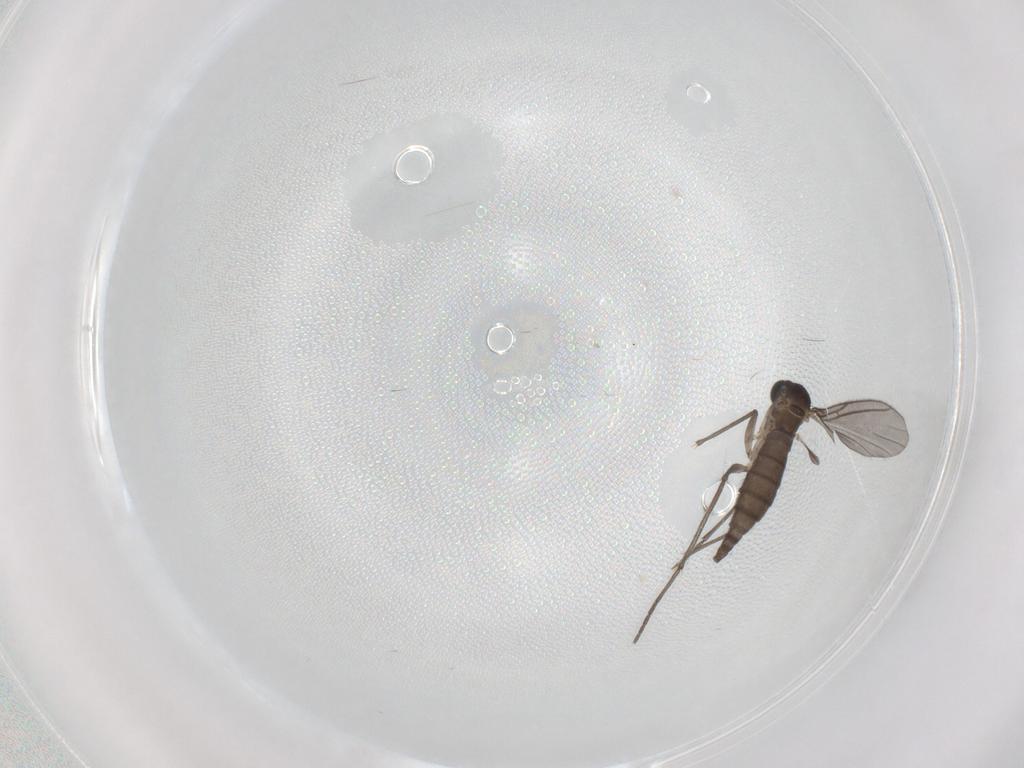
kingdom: Animalia
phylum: Arthropoda
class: Insecta
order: Diptera
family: Sciaridae
